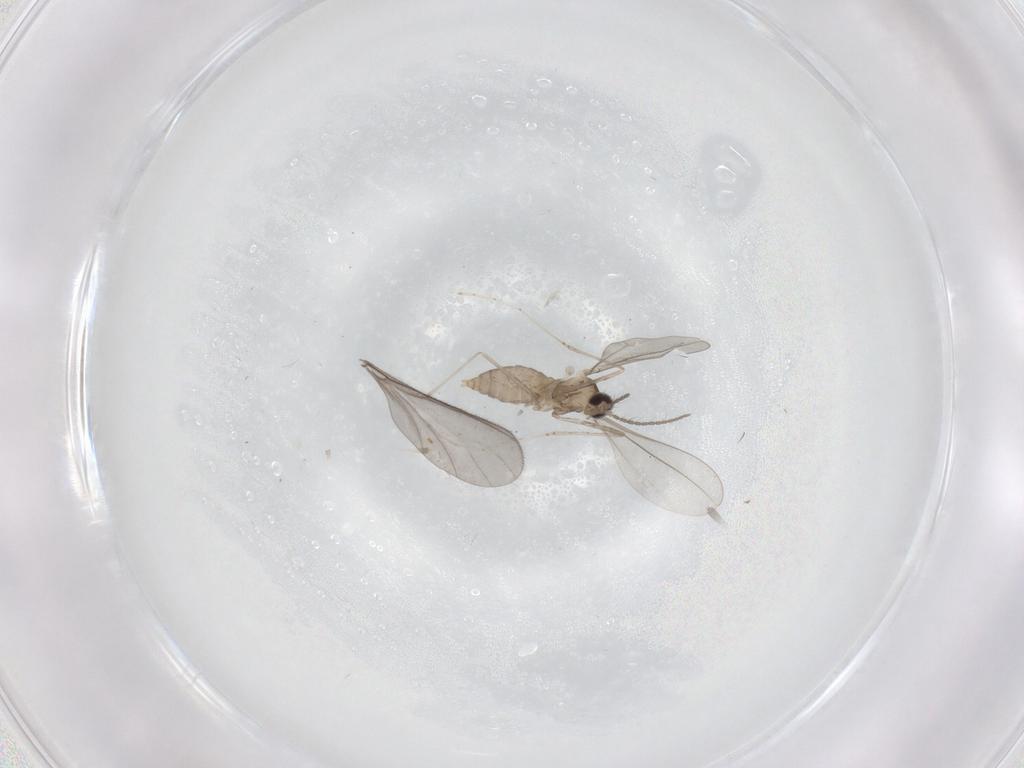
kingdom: Animalia
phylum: Arthropoda
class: Insecta
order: Diptera
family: Cecidomyiidae
